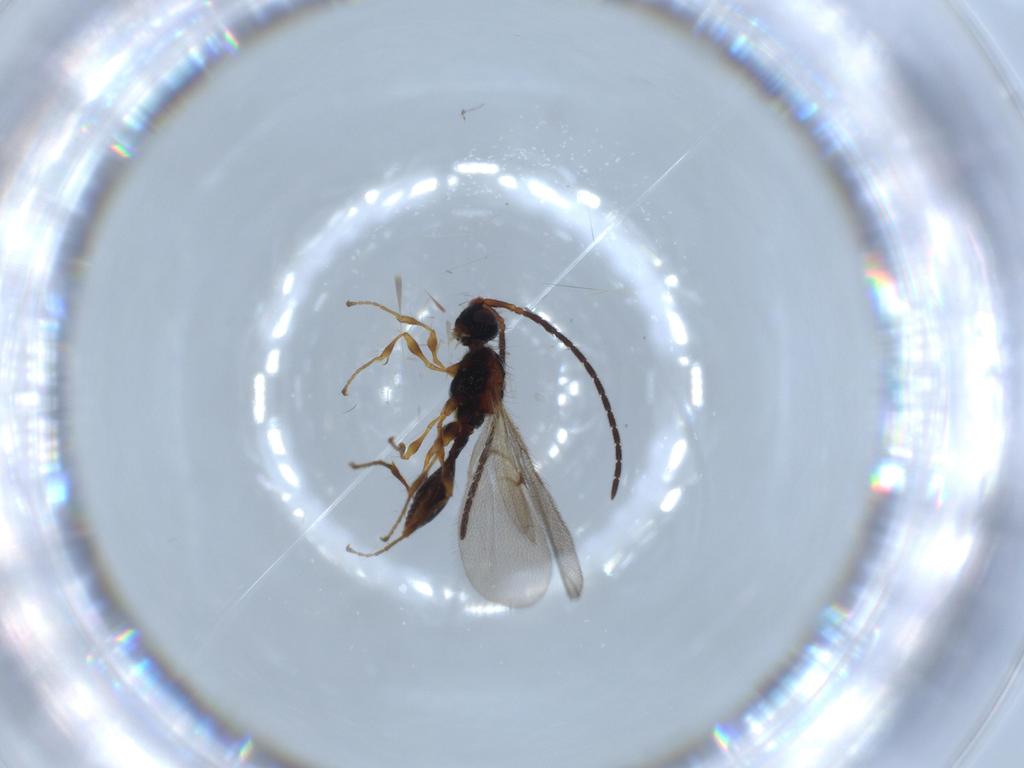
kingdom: Animalia
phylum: Arthropoda
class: Insecta
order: Hymenoptera
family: Diapriidae
